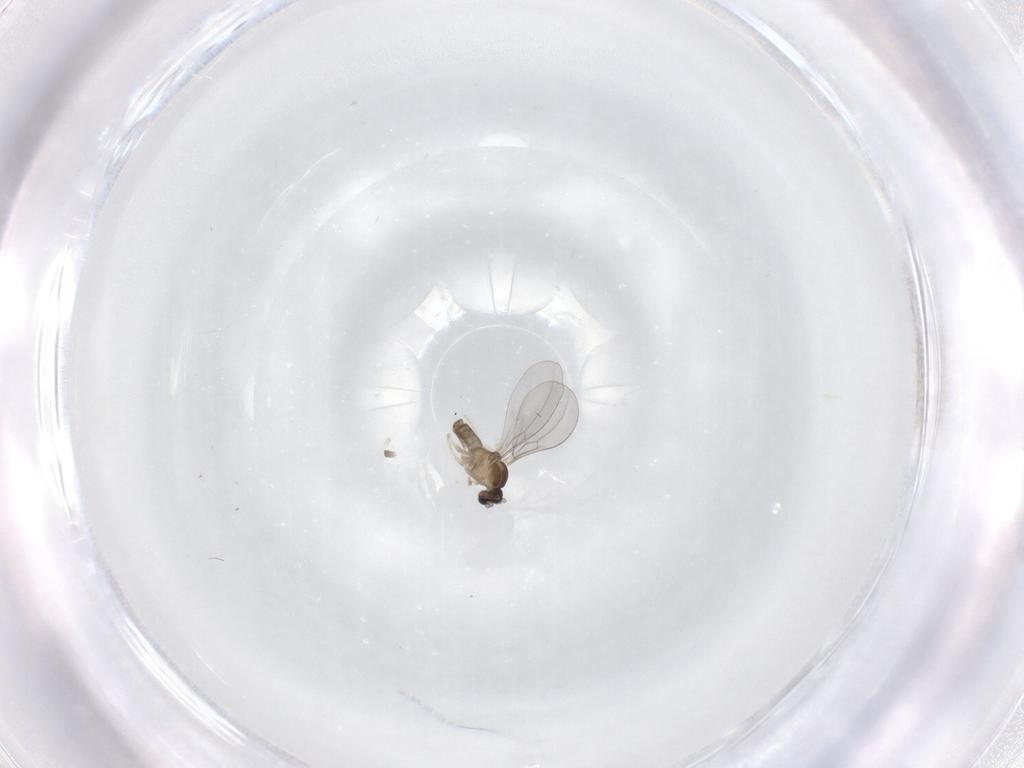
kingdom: Animalia
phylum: Arthropoda
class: Insecta
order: Diptera
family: Cecidomyiidae
